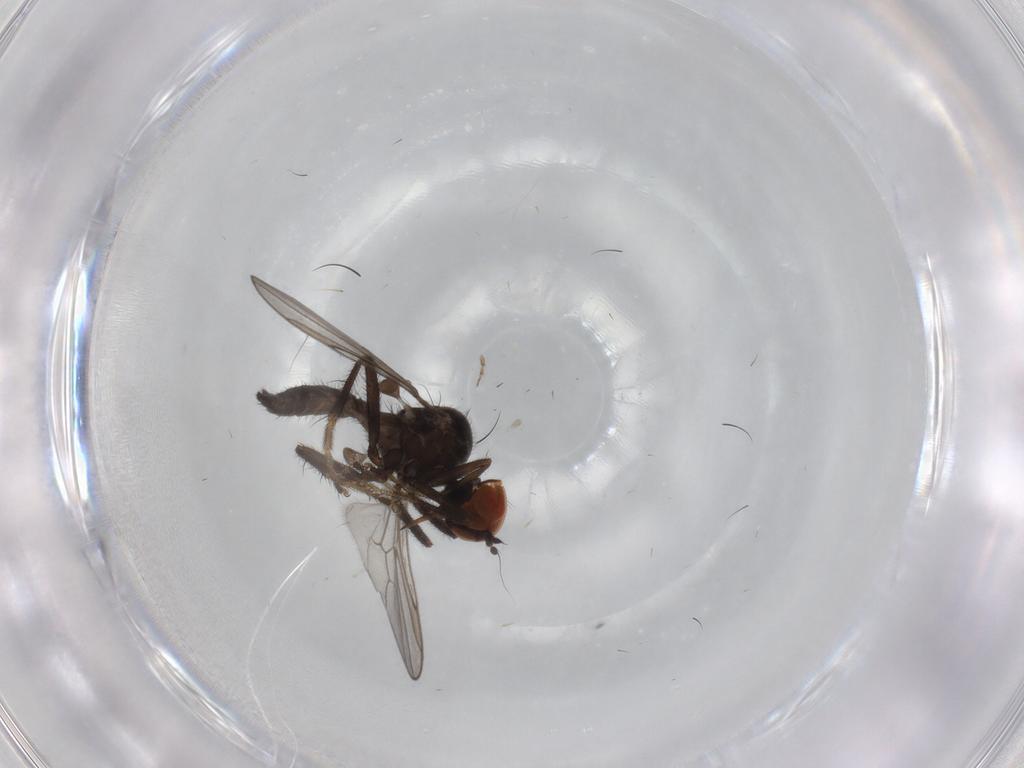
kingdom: Animalia
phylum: Arthropoda
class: Insecta
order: Diptera
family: Hybotidae
